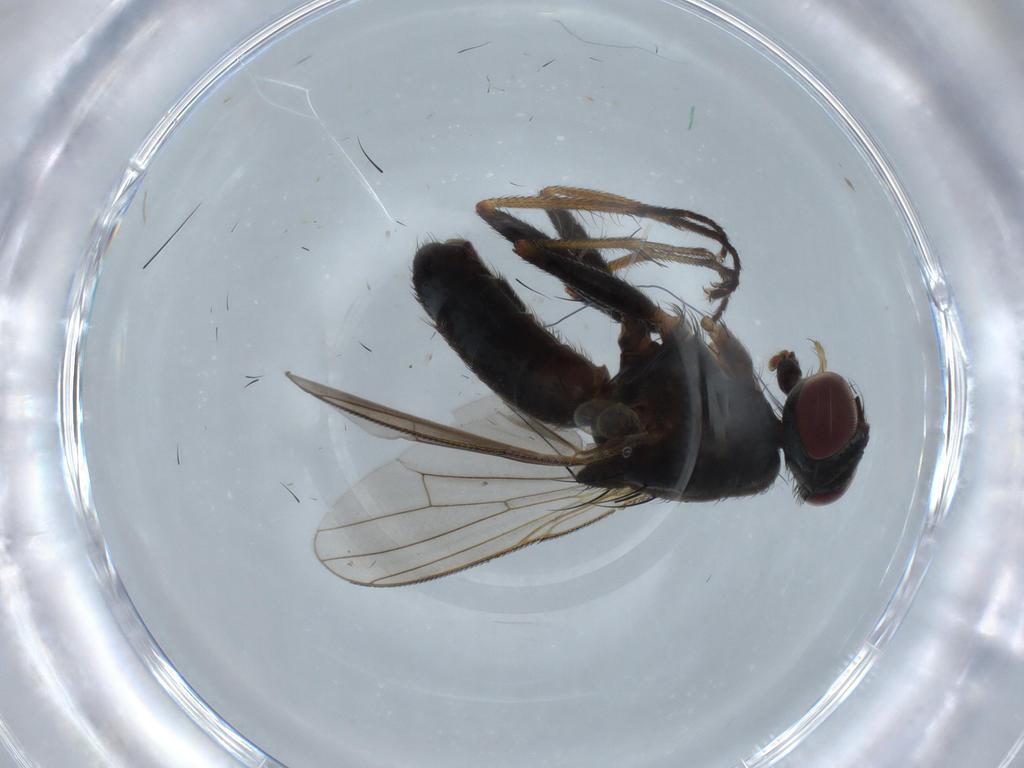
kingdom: Animalia
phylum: Arthropoda
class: Insecta
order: Diptera
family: Muscidae
